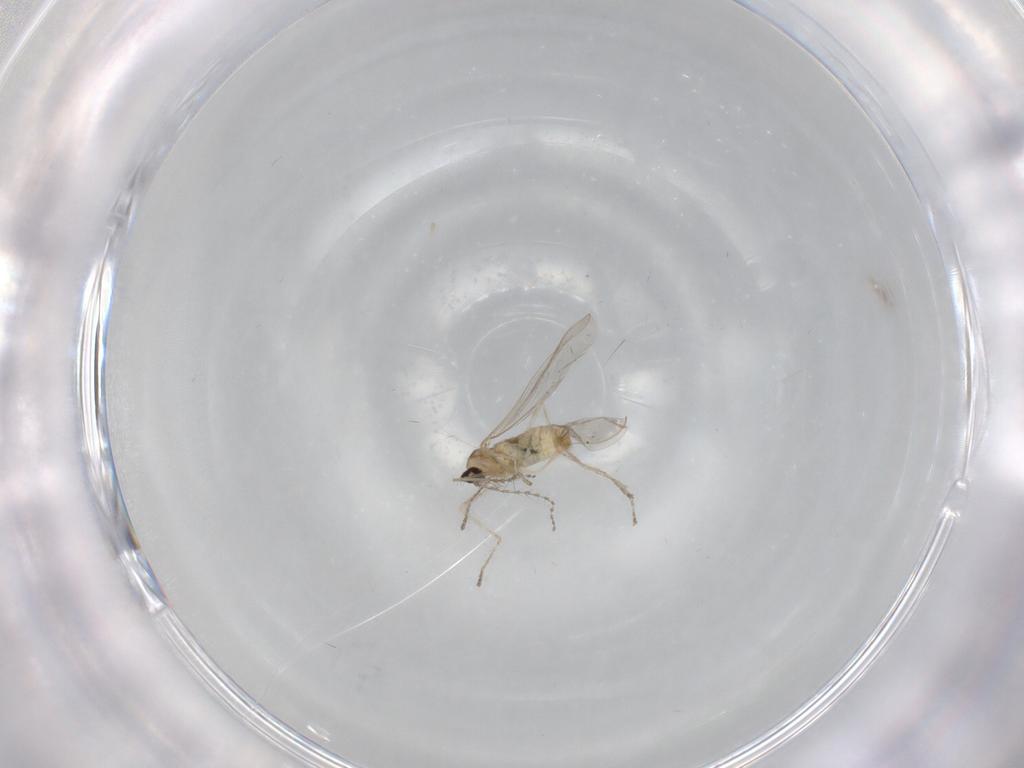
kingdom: Animalia
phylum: Arthropoda
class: Insecta
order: Diptera
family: Cecidomyiidae
